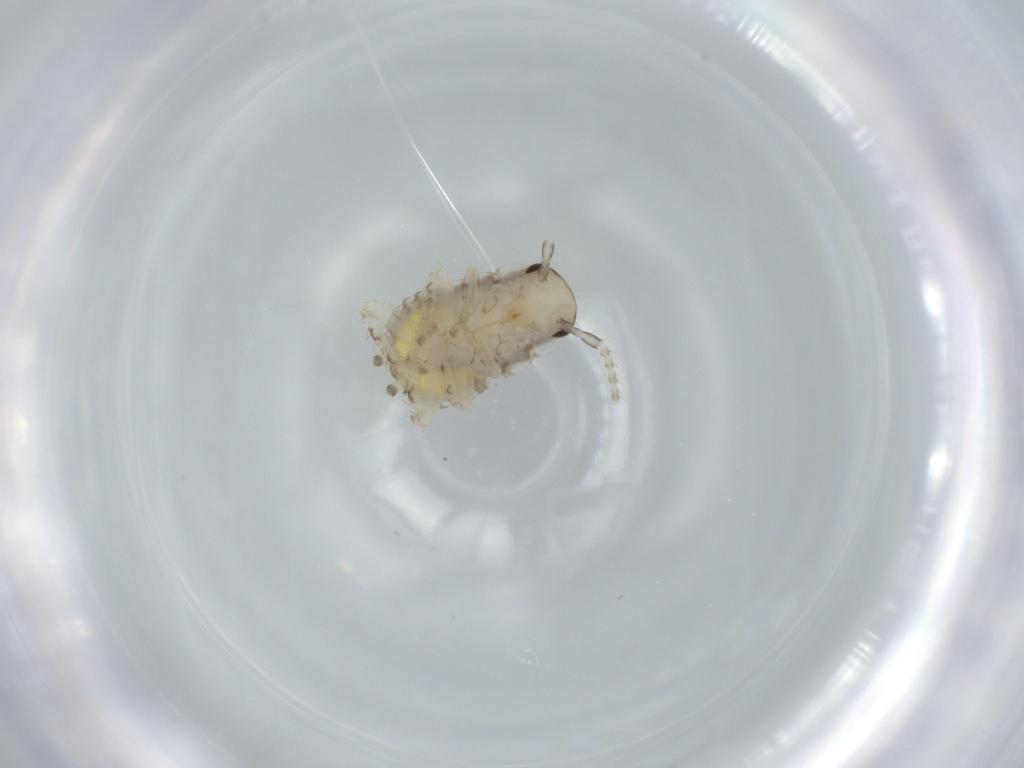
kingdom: Animalia
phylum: Arthropoda
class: Insecta
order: Blattodea
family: Ectobiidae
